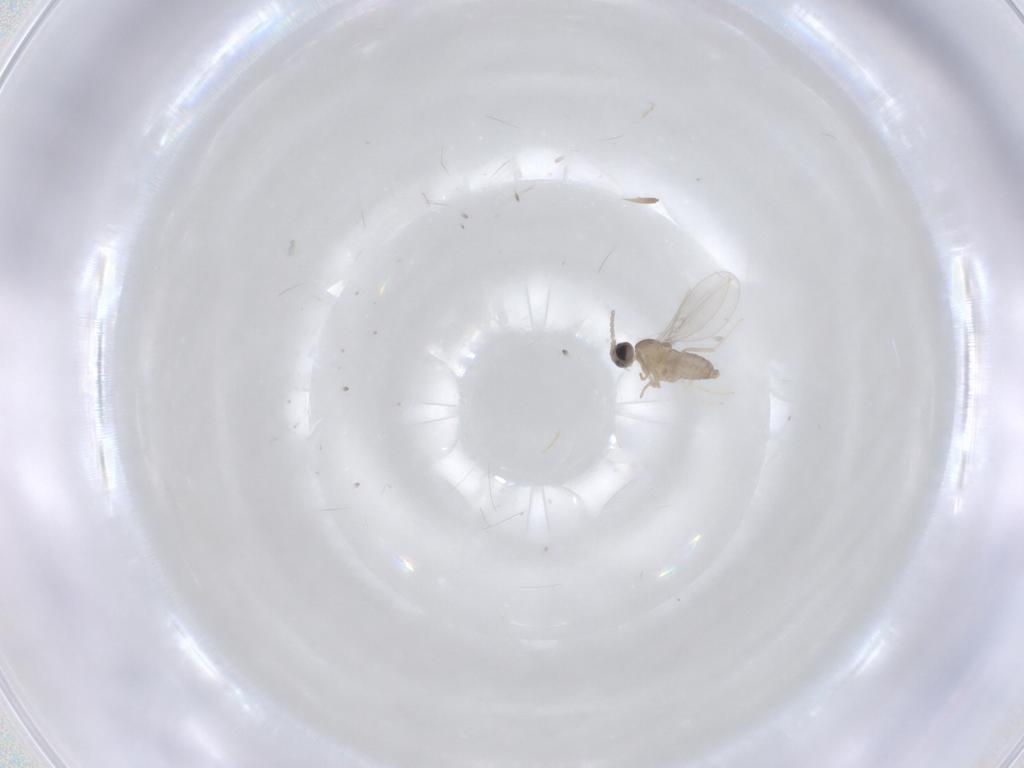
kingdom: Animalia
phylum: Arthropoda
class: Insecta
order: Diptera
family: Cecidomyiidae
